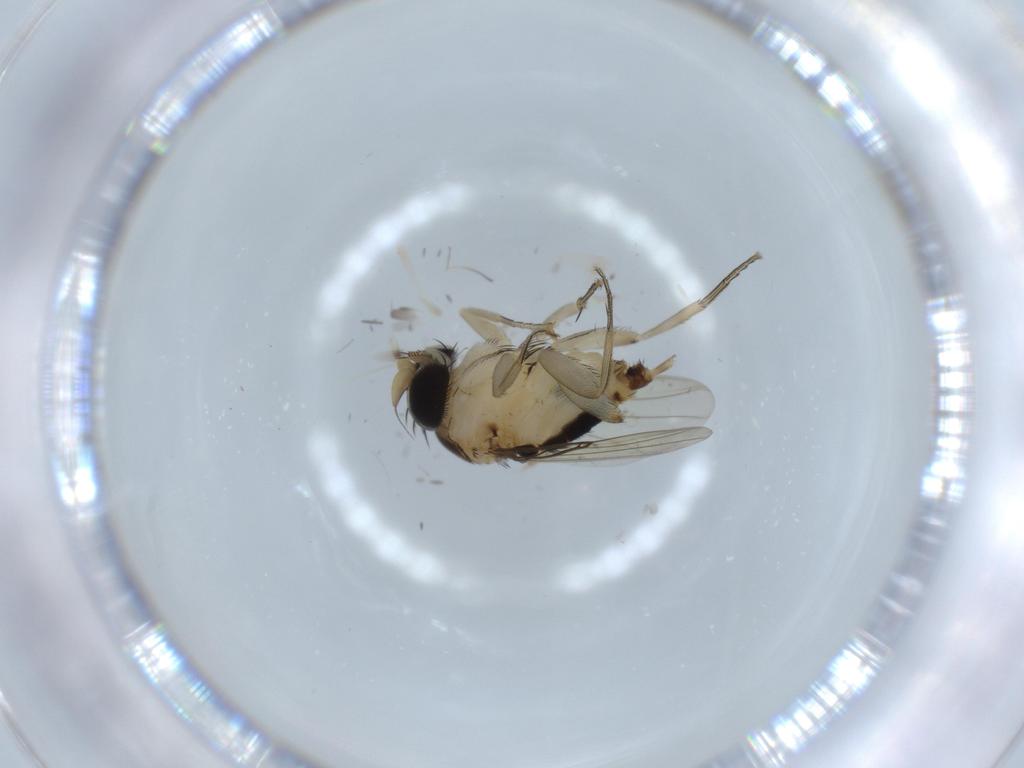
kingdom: Animalia
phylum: Arthropoda
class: Insecta
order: Diptera
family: Phoridae
